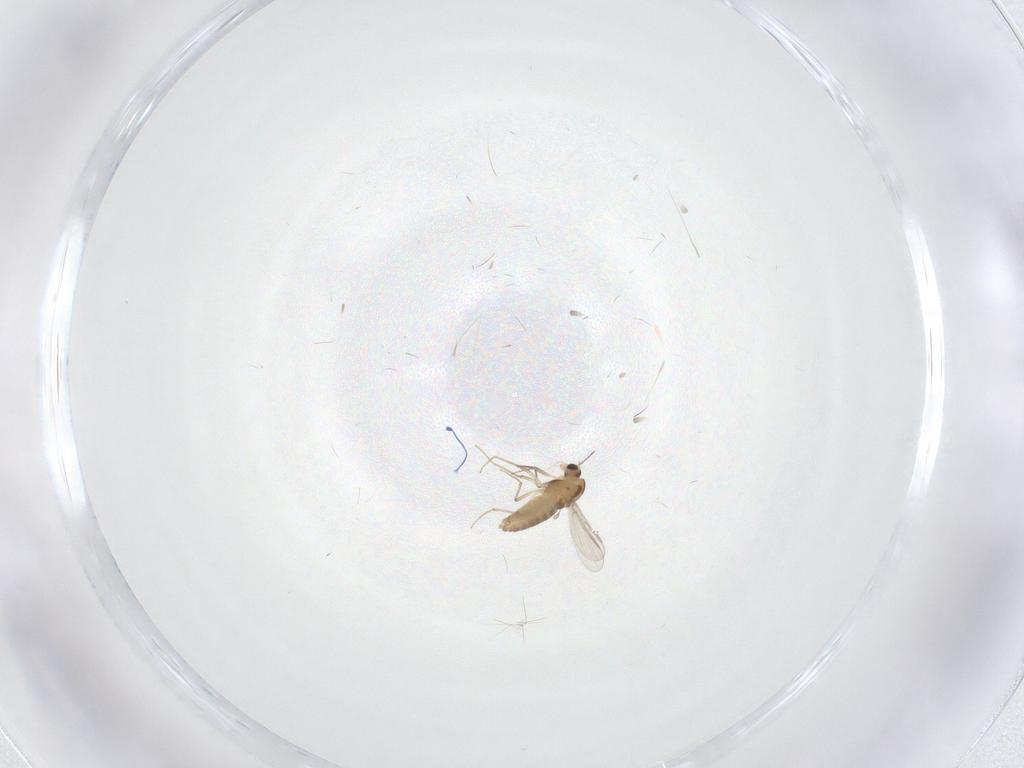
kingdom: Animalia
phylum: Arthropoda
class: Insecta
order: Diptera
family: Chironomidae
